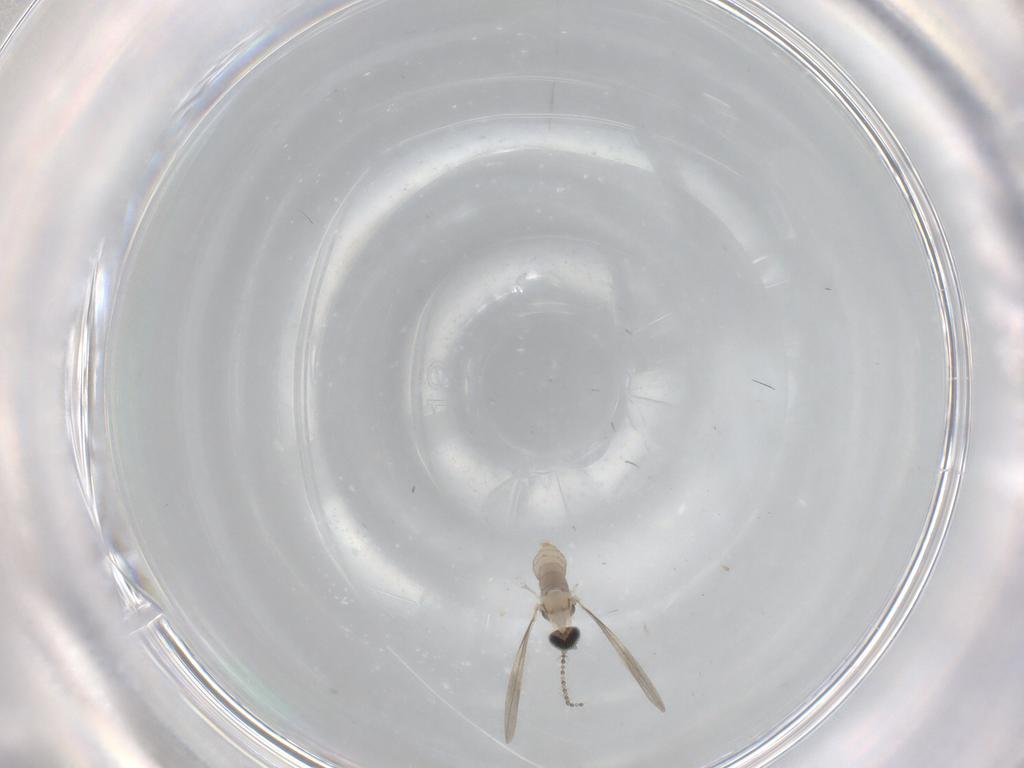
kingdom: Animalia
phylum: Arthropoda
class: Insecta
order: Diptera
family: Cecidomyiidae
